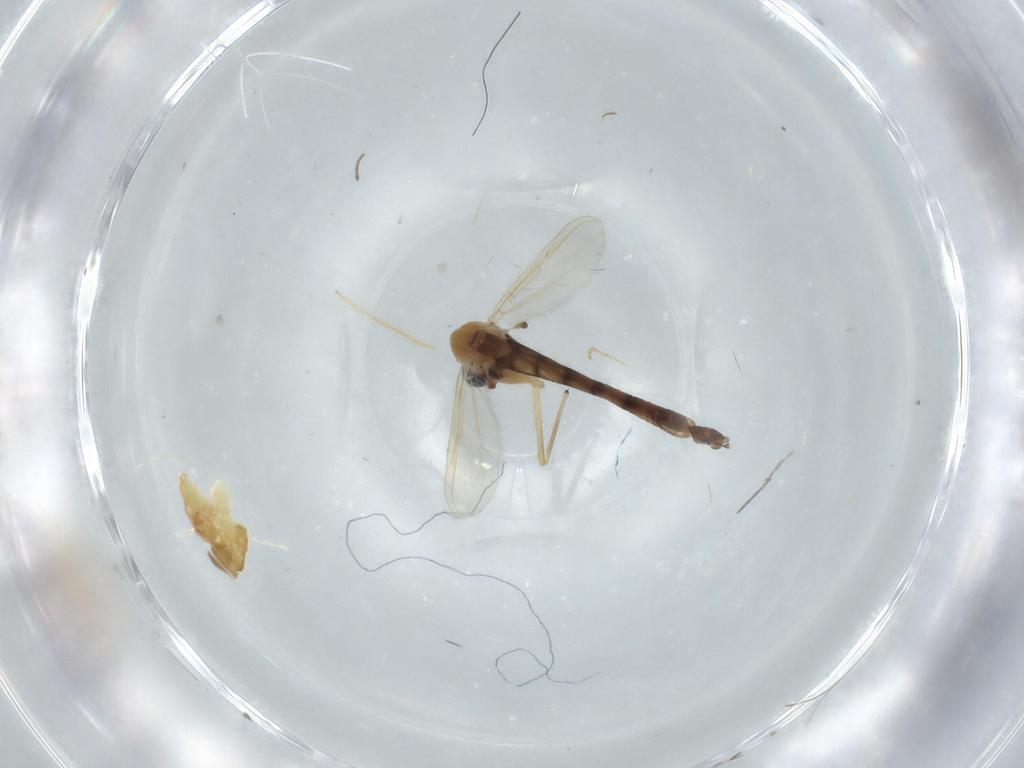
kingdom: Animalia
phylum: Arthropoda
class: Insecta
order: Diptera
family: Chironomidae
